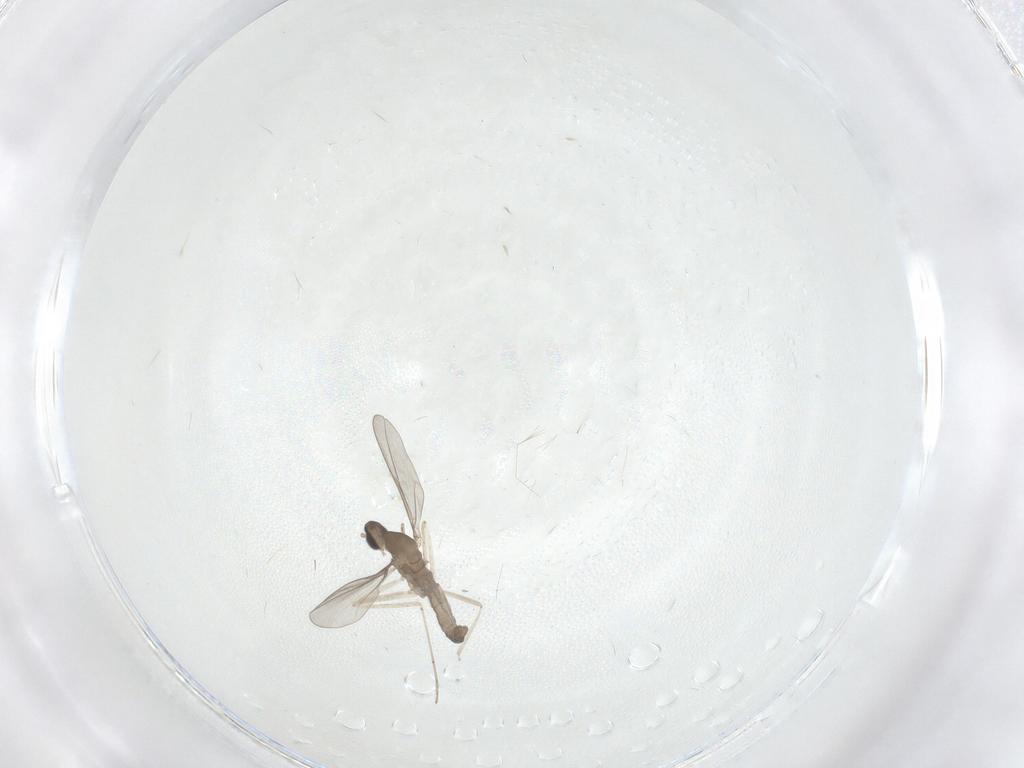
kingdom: Animalia
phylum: Arthropoda
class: Insecta
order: Diptera
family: Cecidomyiidae
